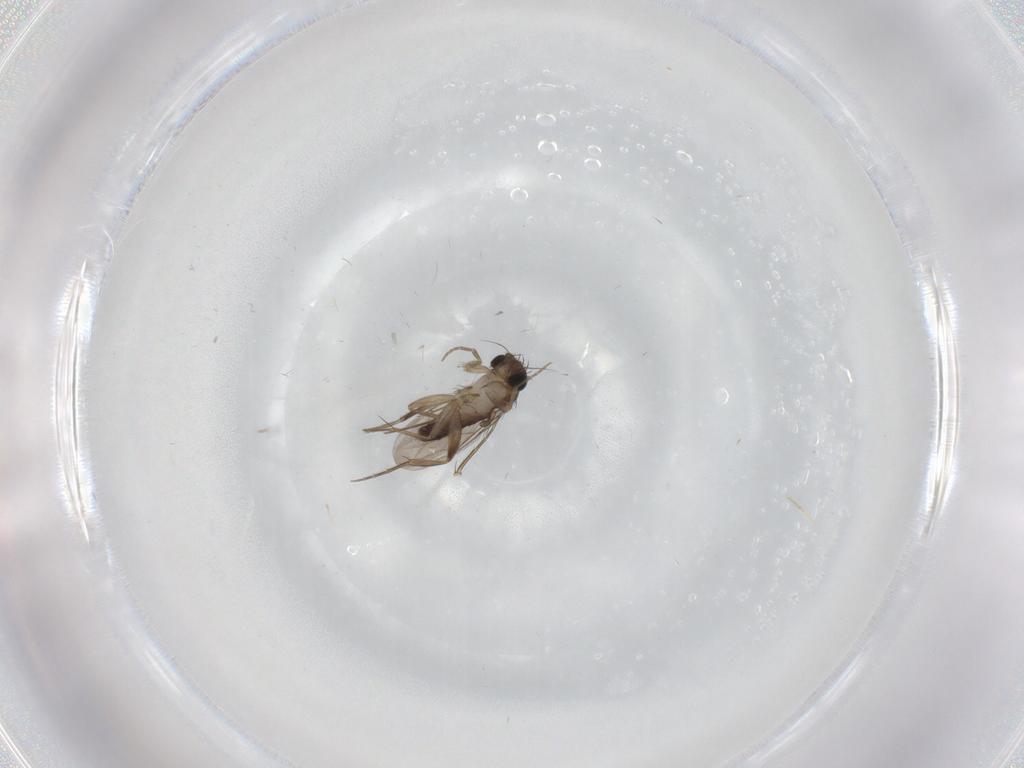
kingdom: Animalia
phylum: Arthropoda
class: Insecta
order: Diptera
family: Phoridae
